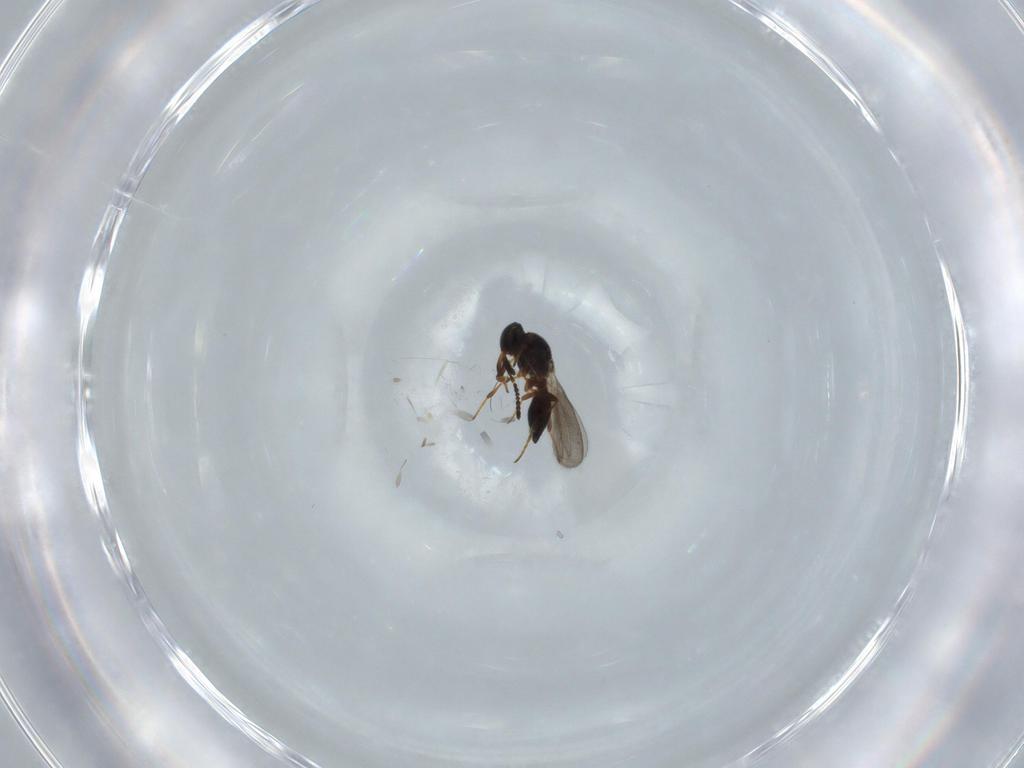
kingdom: Animalia
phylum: Arthropoda
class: Insecta
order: Hymenoptera
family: Platygastridae
